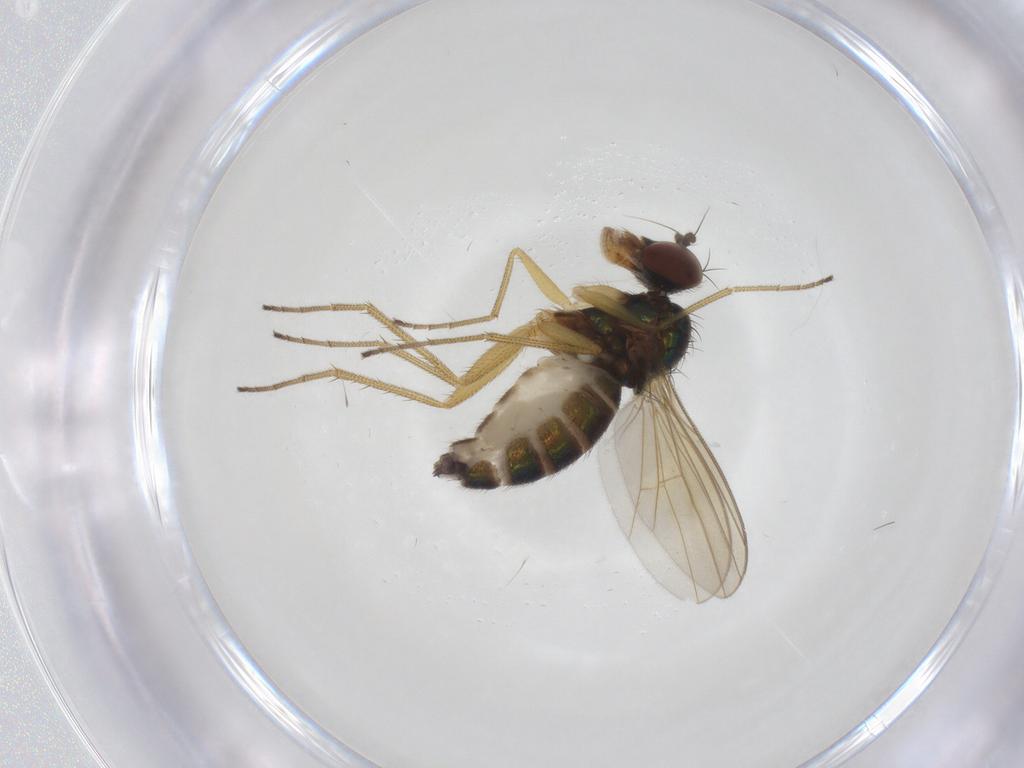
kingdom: Animalia
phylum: Arthropoda
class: Insecta
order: Diptera
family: Dolichopodidae
